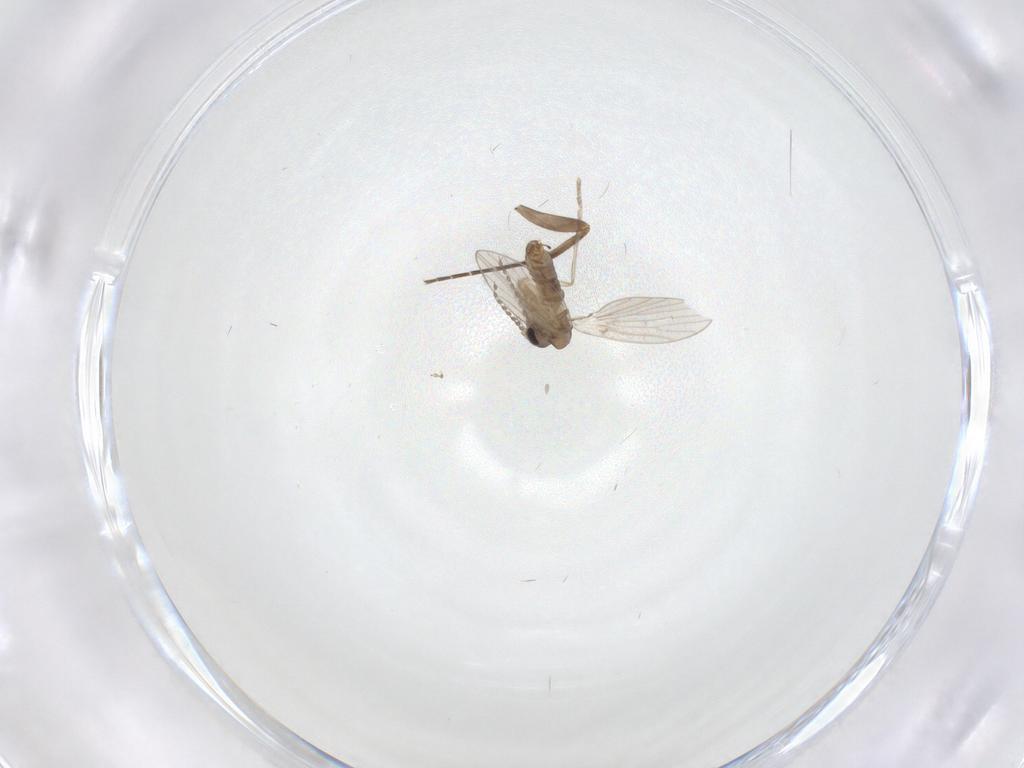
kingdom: Animalia
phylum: Arthropoda
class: Insecta
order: Diptera
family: Phoridae
